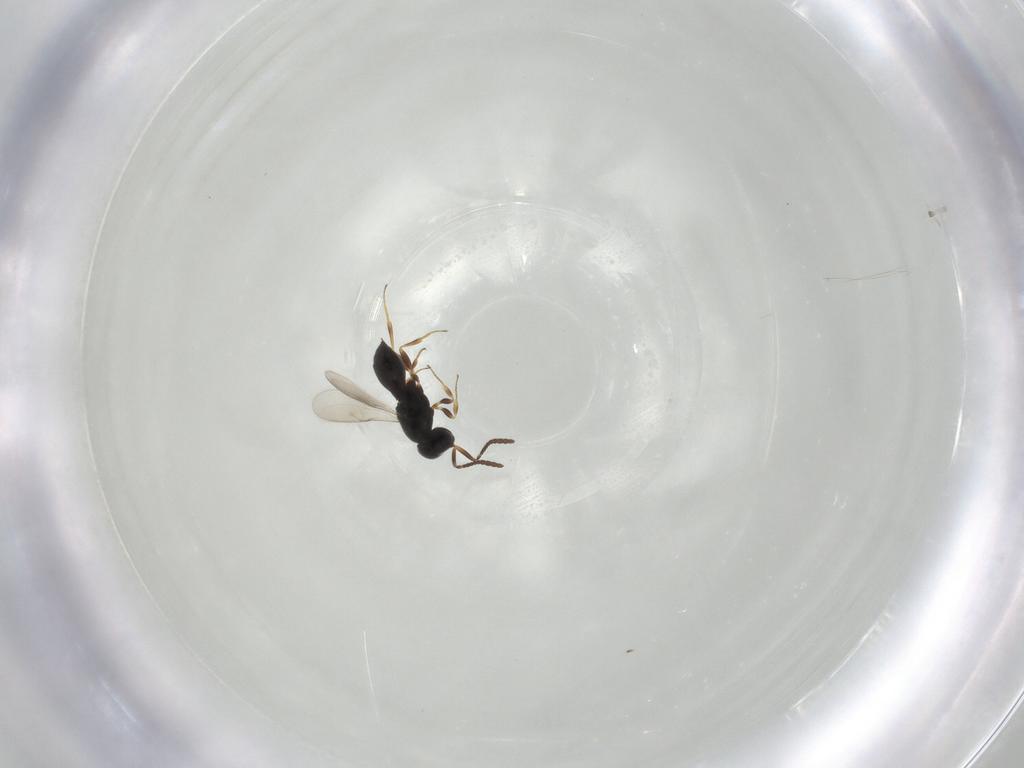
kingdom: Animalia
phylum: Arthropoda
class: Insecta
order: Hymenoptera
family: Scelionidae
